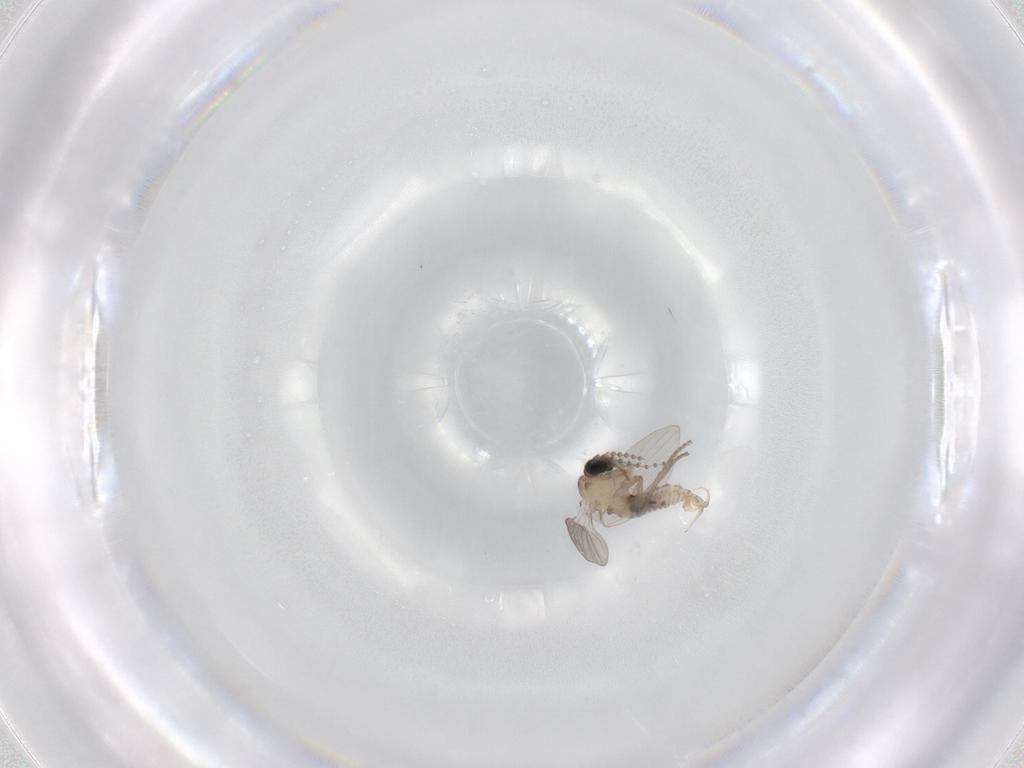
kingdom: Animalia
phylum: Arthropoda
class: Insecta
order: Diptera
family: Psychodidae
